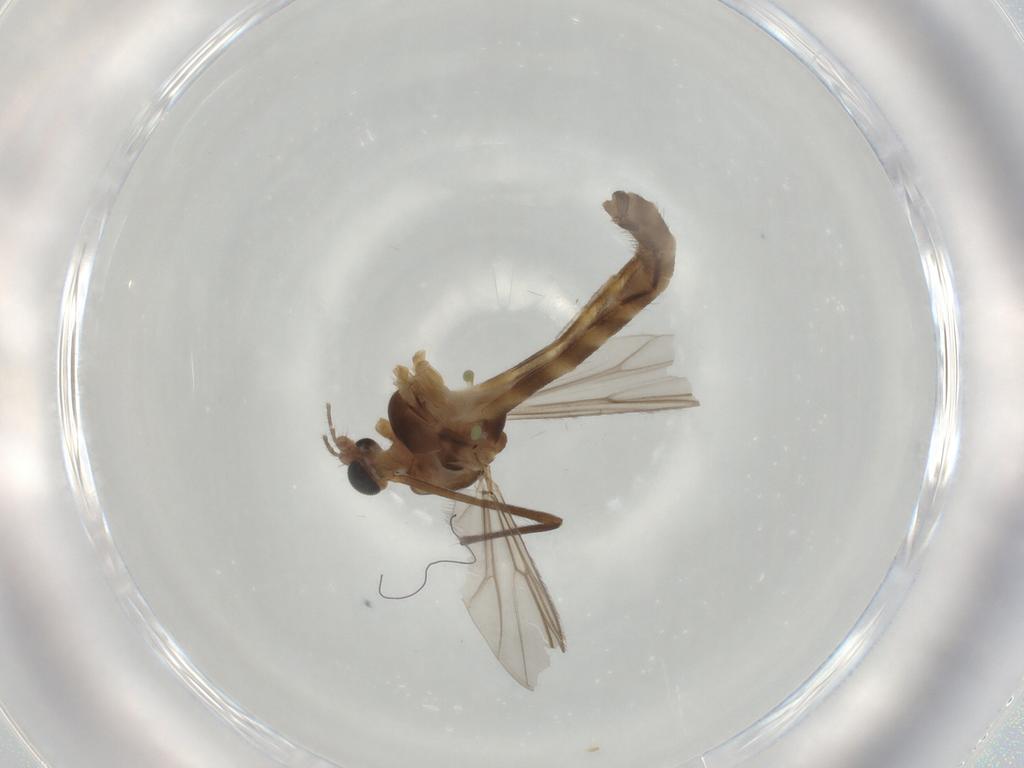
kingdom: Animalia
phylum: Arthropoda
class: Insecta
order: Diptera
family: Chironomidae
